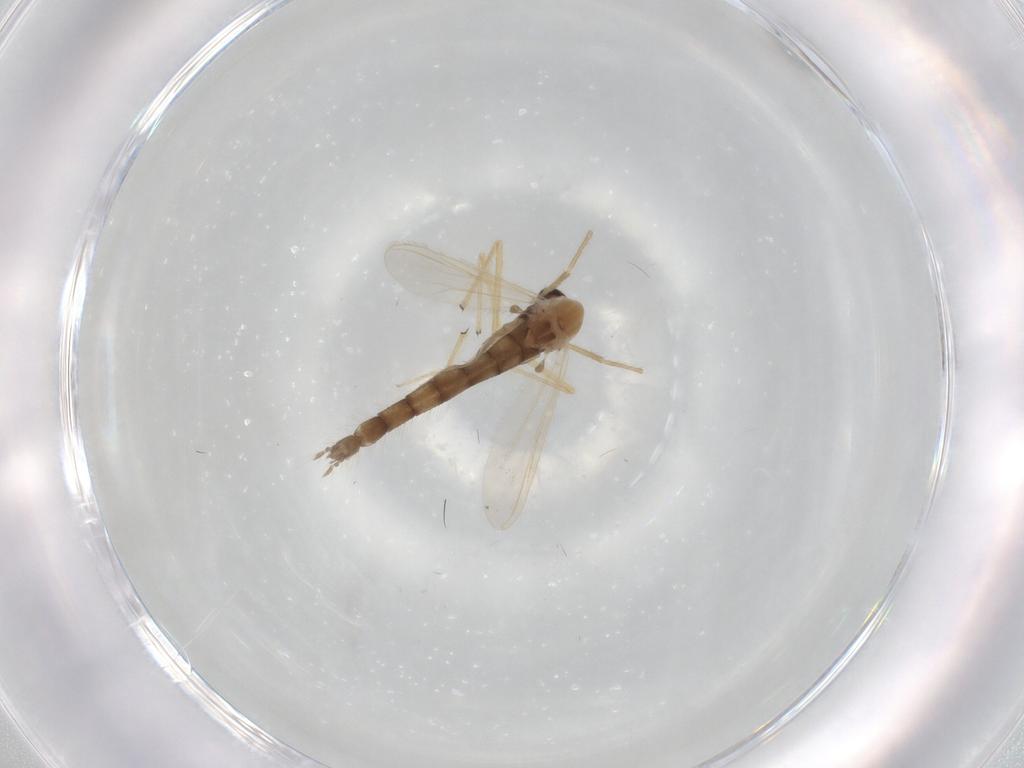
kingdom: Animalia
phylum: Arthropoda
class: Insecta
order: Diptera
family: Chironomidae
